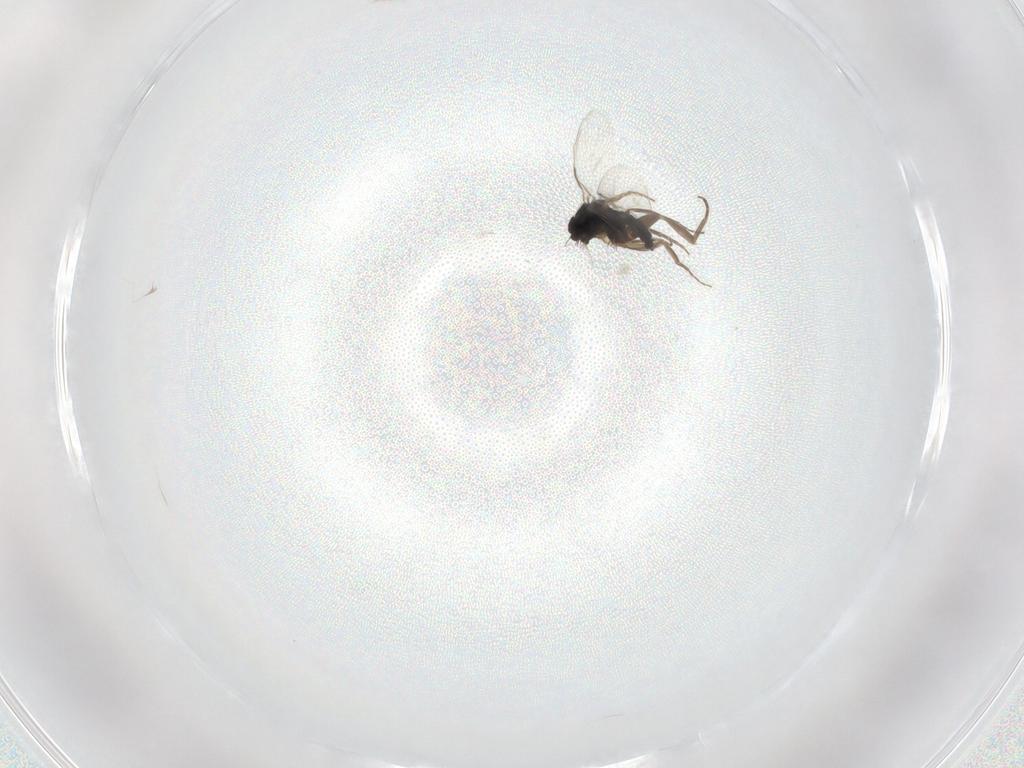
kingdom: Animalia
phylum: Arthropoda
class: Insecta
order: Diptera
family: Phoridae
